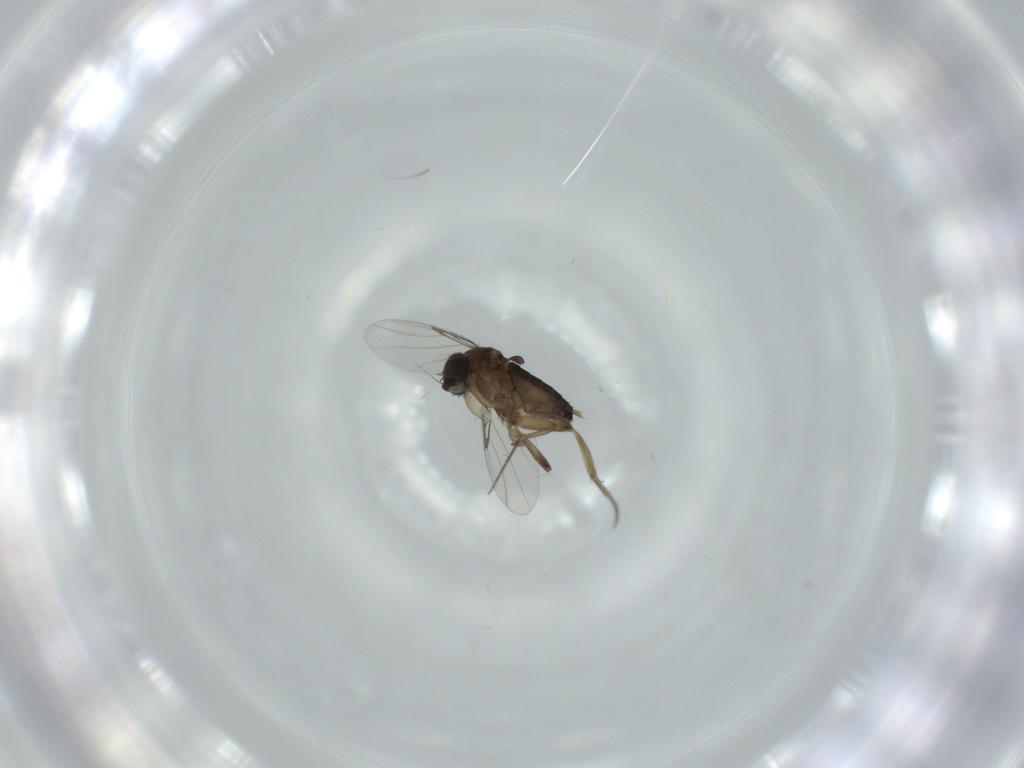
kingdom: Animalia
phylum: Arthropoda
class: Insecta
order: Diptera
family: Phoridae
